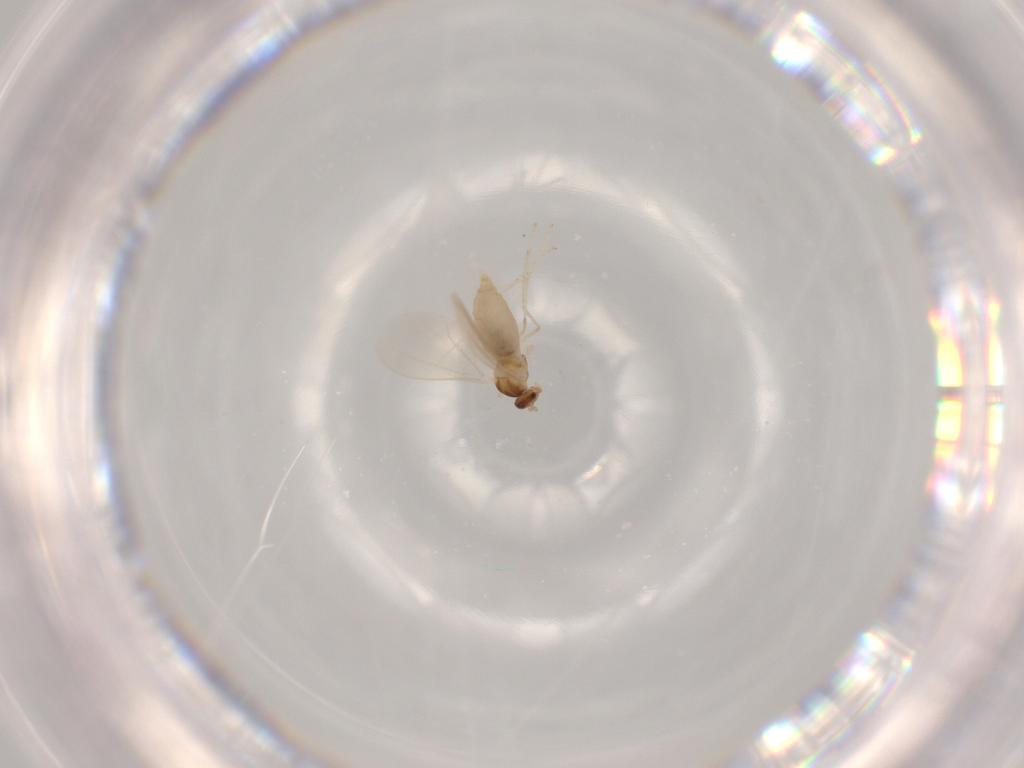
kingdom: Animalia
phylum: Arthropoda
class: Insecta
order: Diptera
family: Cecidomyiidae
